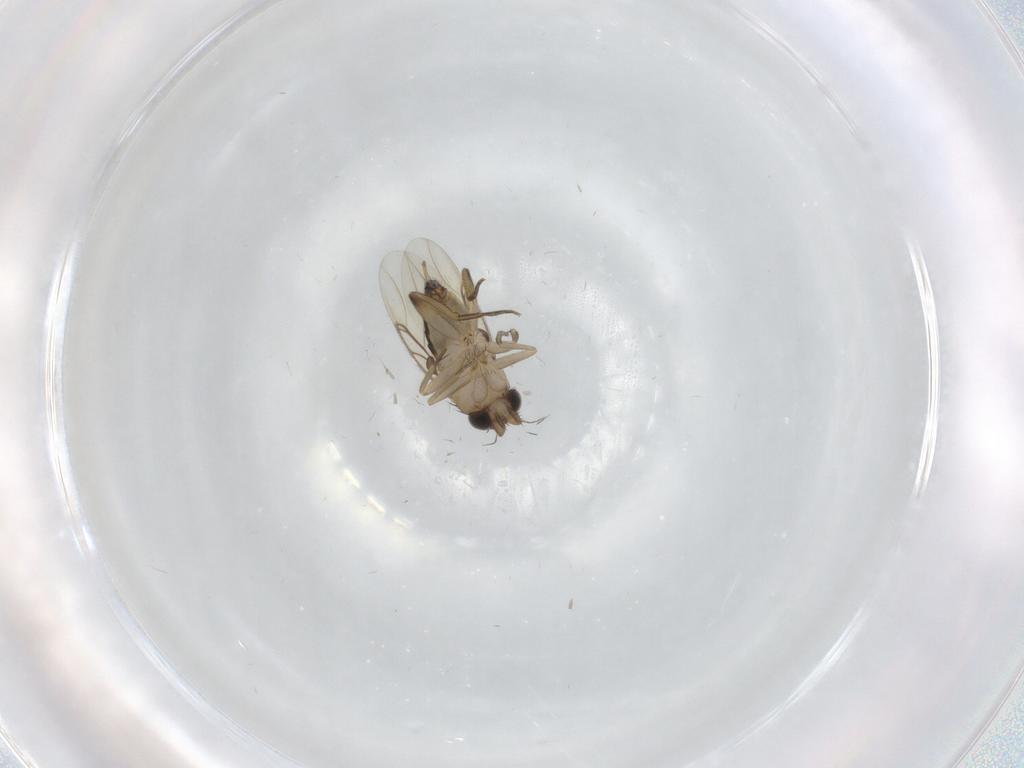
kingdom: Animalia
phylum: Arthropoda
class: Insecta
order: Diptera
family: Phoridae
